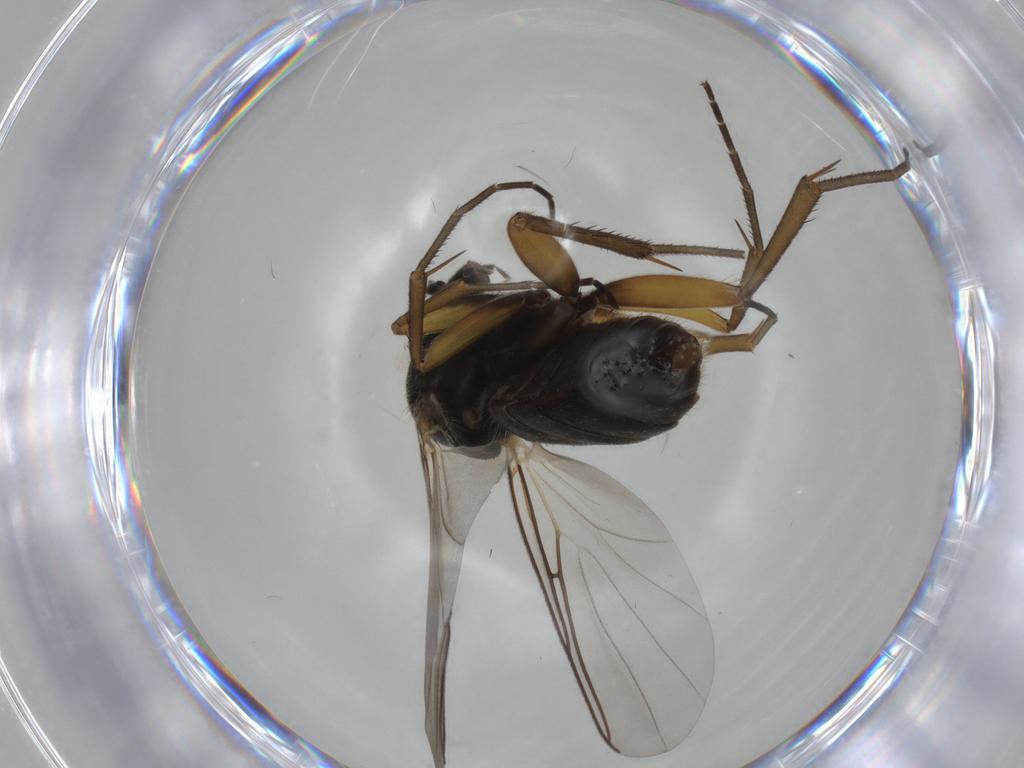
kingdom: Animalia
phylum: Arthropoda
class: Insecta
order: Diptera
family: Mycetophilidae
